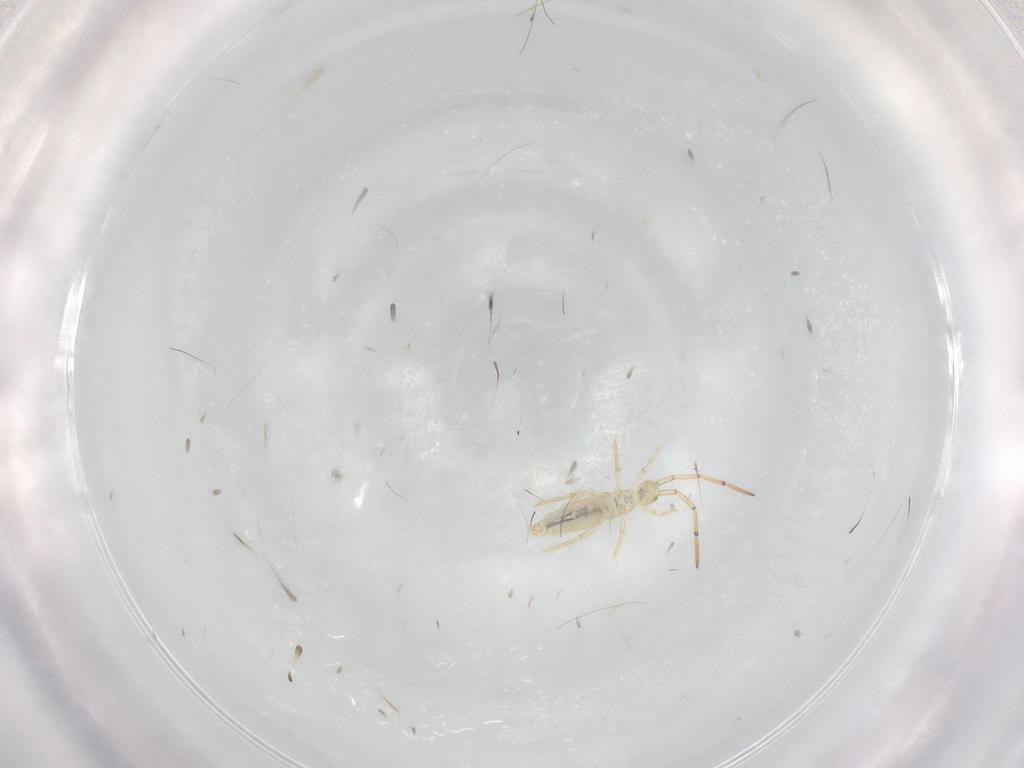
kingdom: Animalia
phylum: Arthropoda
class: Collembola
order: Entomobryomorpha
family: Paronellidae
